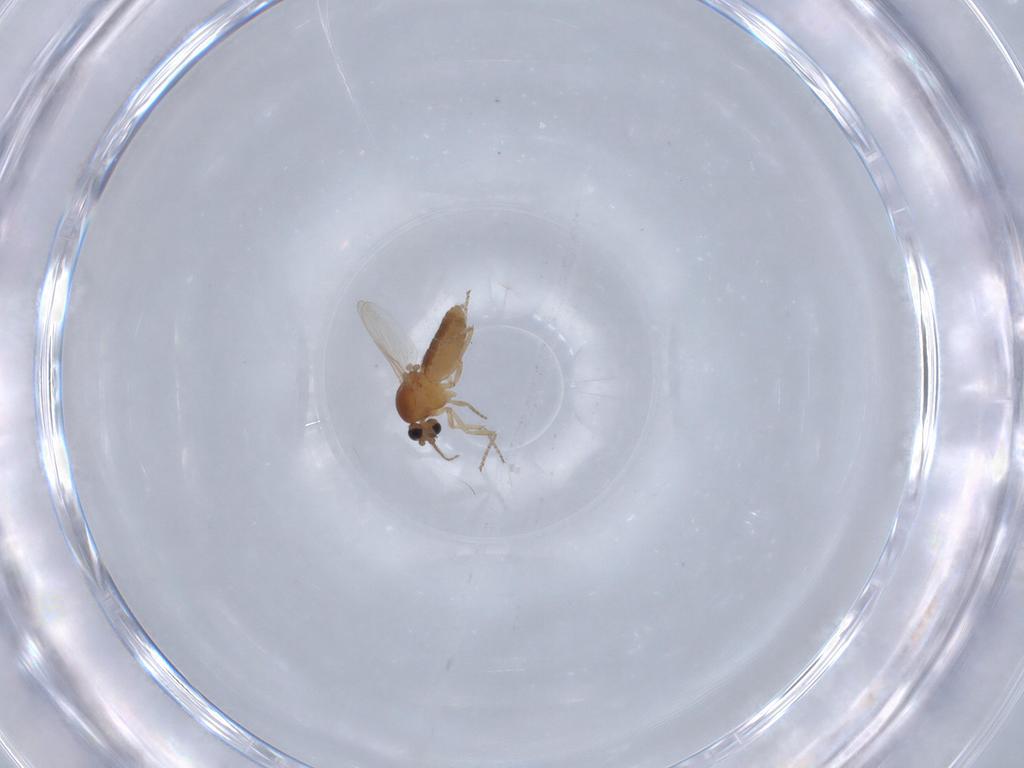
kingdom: Animalia
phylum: Arthropoda
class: Insecta
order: Diptera
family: Ceratopogonidae
